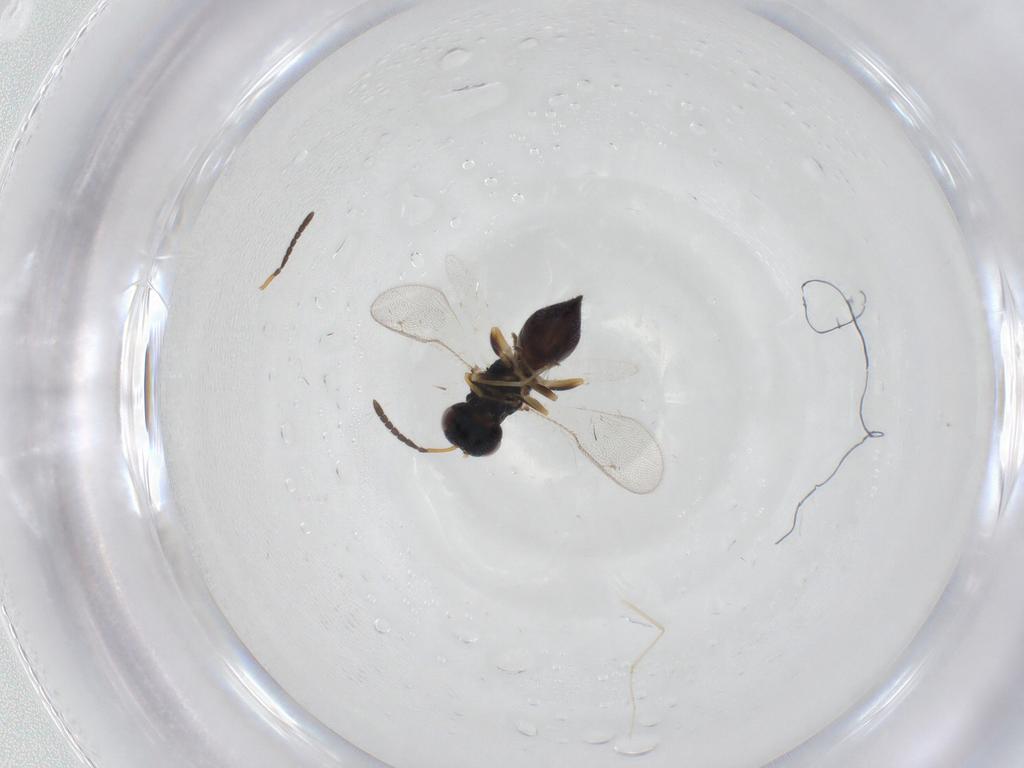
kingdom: Animalia
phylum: Arthropoda
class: Insecta
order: Hymenoptera
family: Pteromalidae
